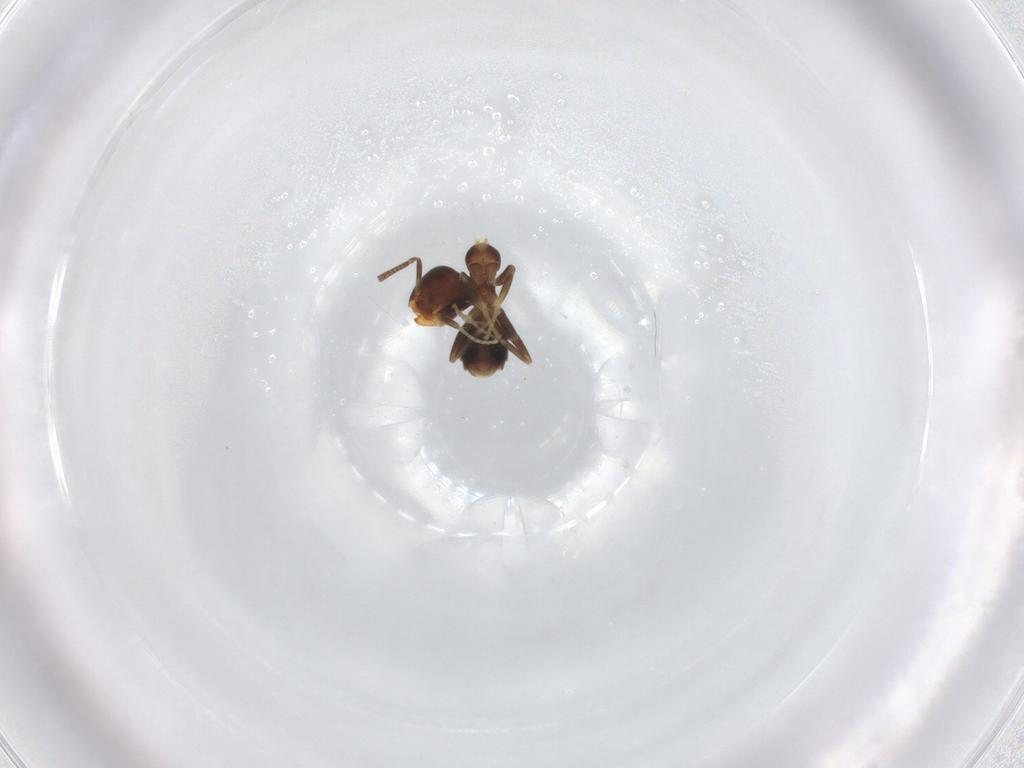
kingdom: Animalia
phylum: Arthropoda
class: Insecta
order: Hymenoptera
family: Formicidae
